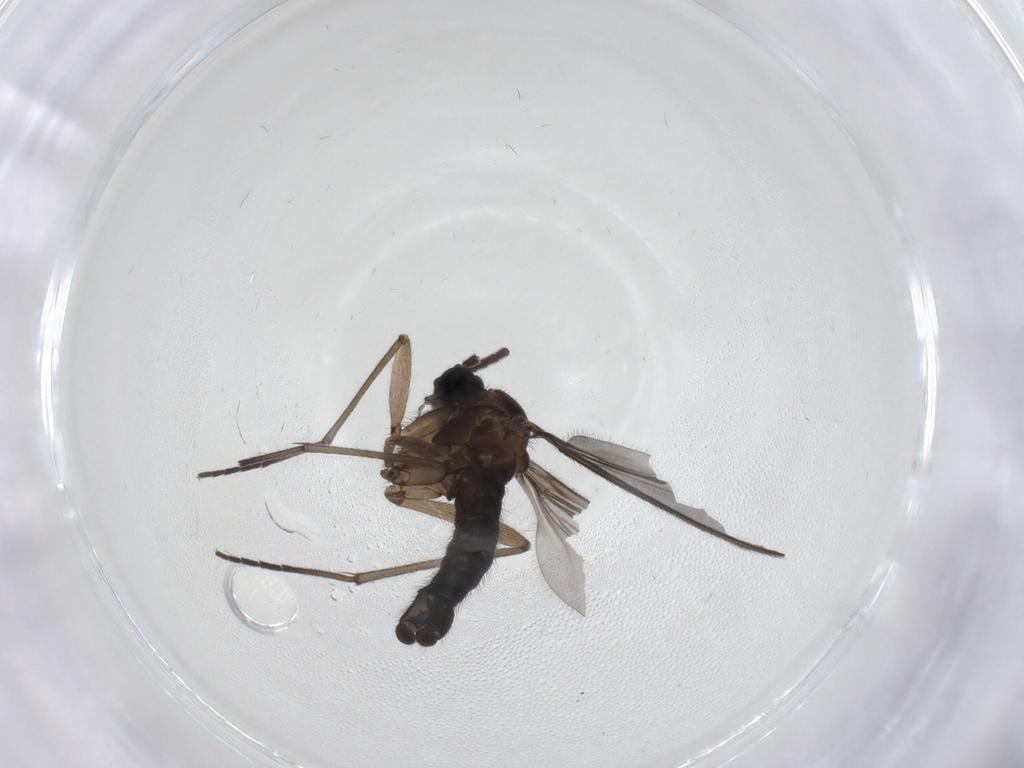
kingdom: Animalia
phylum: Arthropoda
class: Insecta
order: Diptera
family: Sciaridae
